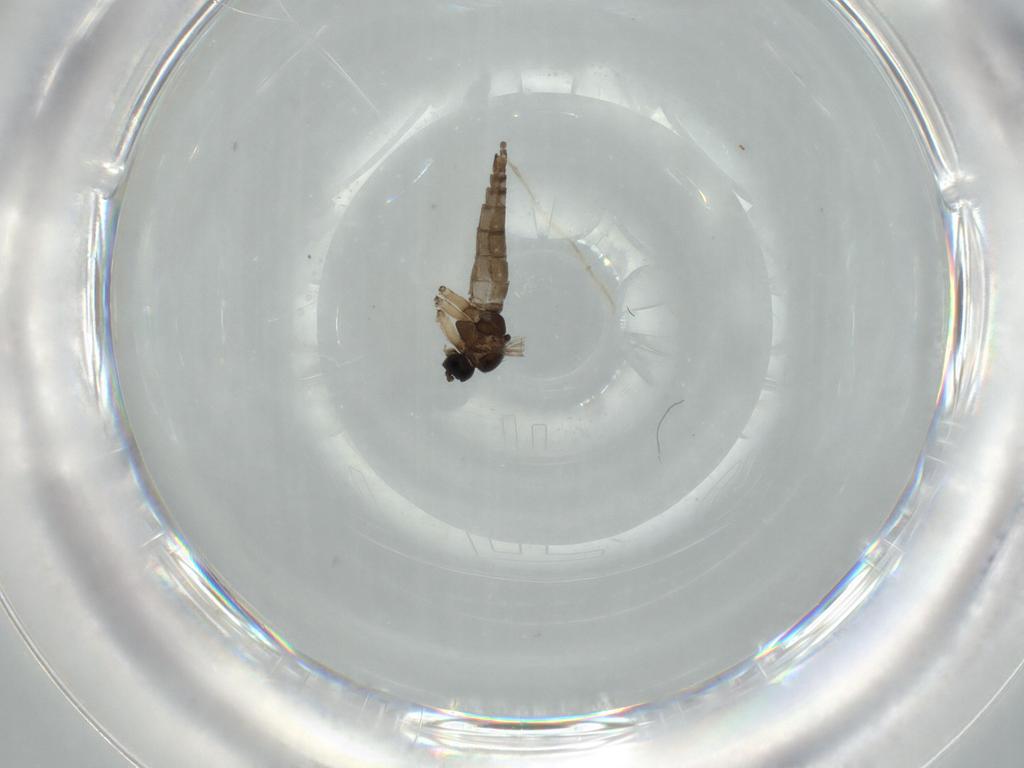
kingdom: Animalia
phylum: Arthropoda
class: Insecta
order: Diptera
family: Sciaridae
